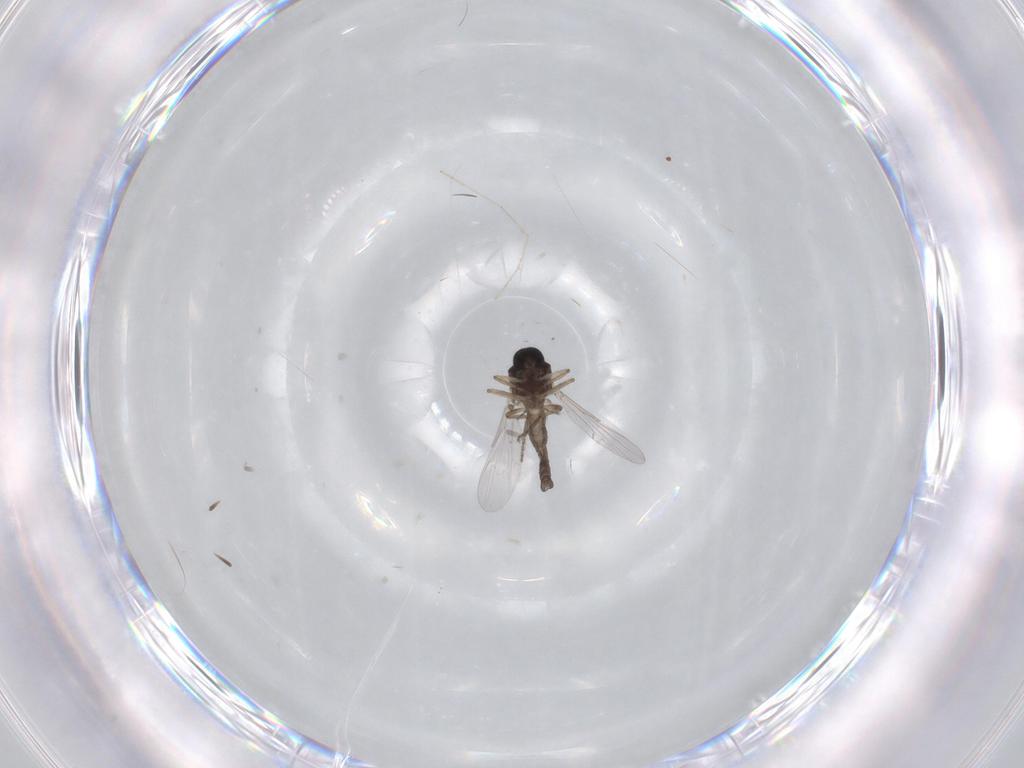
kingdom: Animalia
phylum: Arthropoda
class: Insecta
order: Diptera
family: Chironomidae
